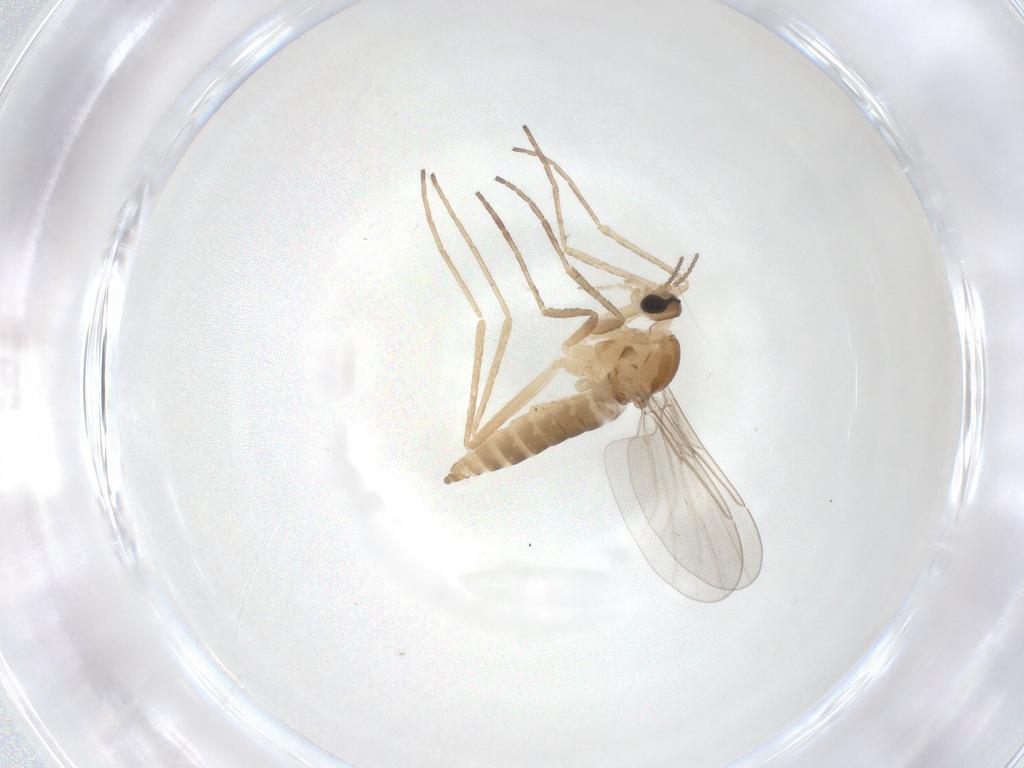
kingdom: Animalia
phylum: Arthropoda
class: Insecta
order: Diptera
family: Cecidomyiidae
